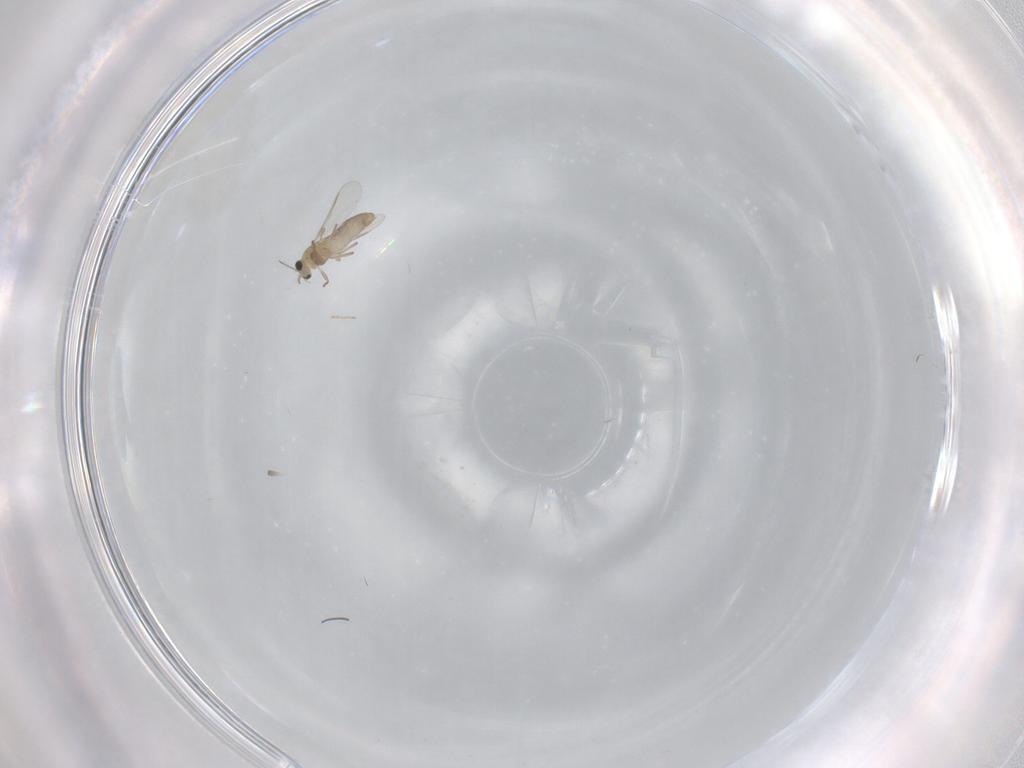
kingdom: Animalia
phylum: Arthropoda
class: Insecta
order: Diptera
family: Chironomidae
